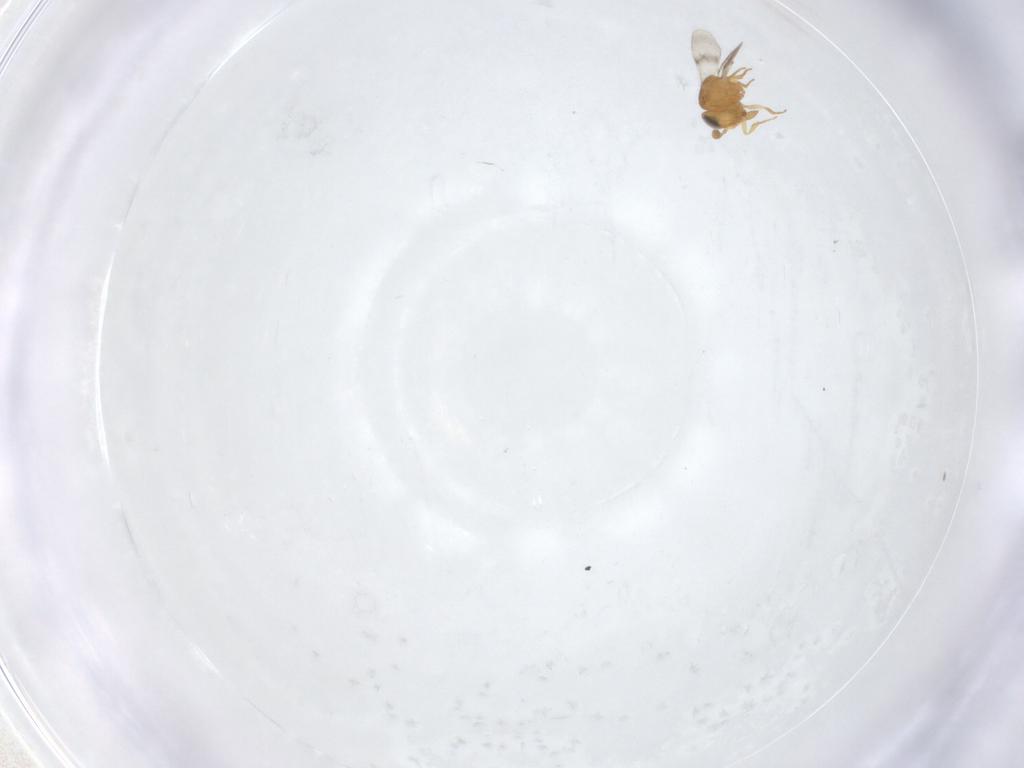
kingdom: Animalia
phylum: Arthropoda
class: Insecta
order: Hymenoptera
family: Scelionidae
